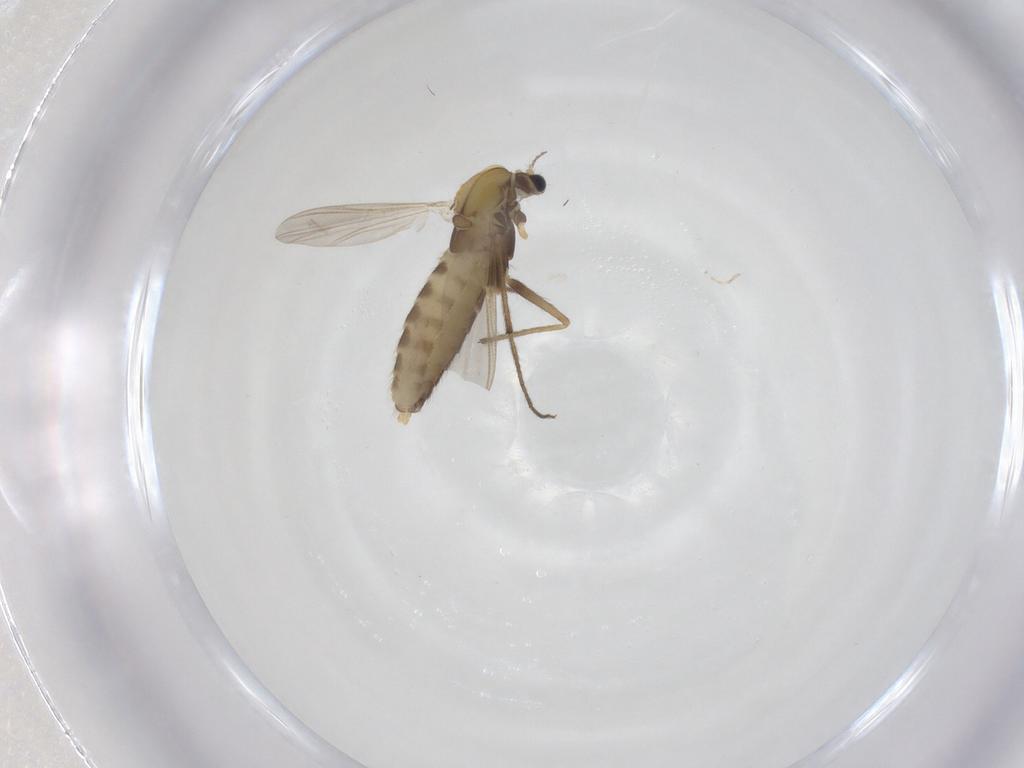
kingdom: Animalia
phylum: Arthropoda
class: Insecta
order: Diptera
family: Chironomidae
